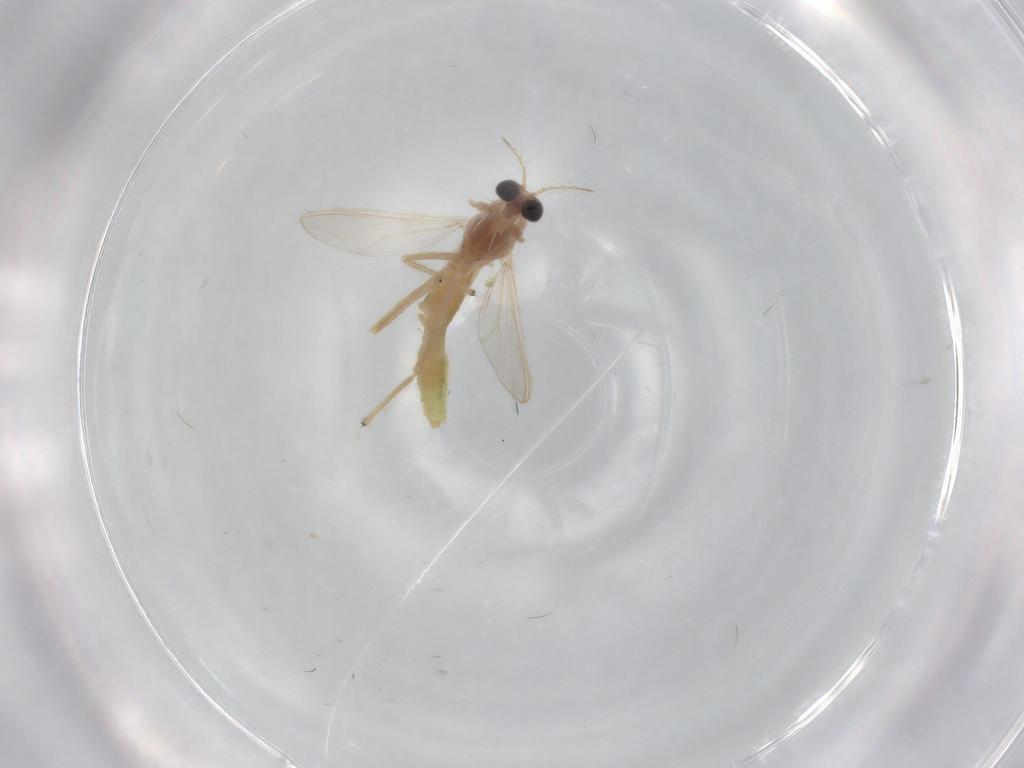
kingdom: Animalia
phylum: Arthropoda
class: Insecta
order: Diptera
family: Chironomidae
